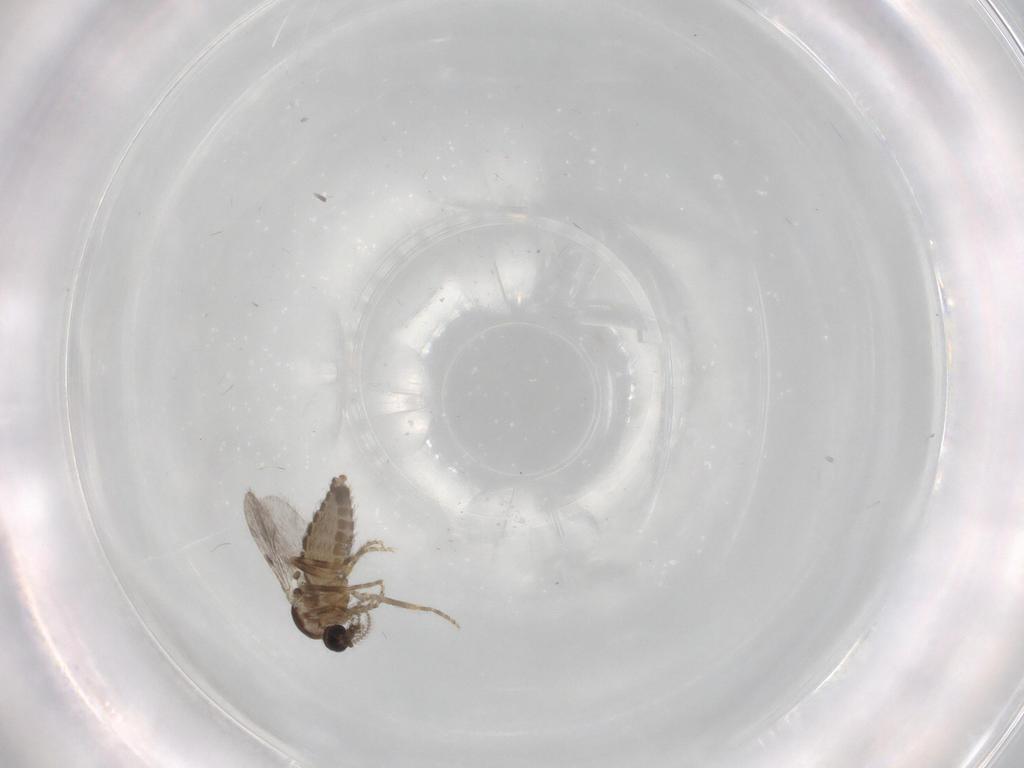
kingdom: Animalia
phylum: Arthropoda
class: Insecta
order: Diptera
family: Ceratopogonidae
